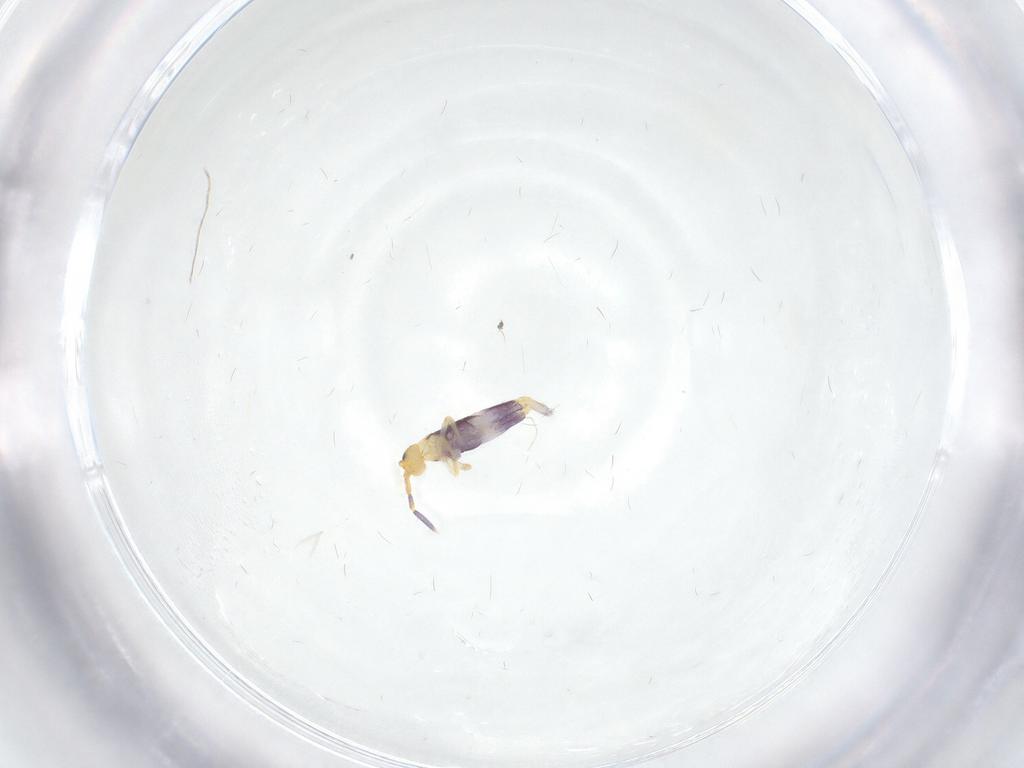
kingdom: Animalia
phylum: Arthropoda
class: Collembola
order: Entomobryomorpha
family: Entomobryidae
